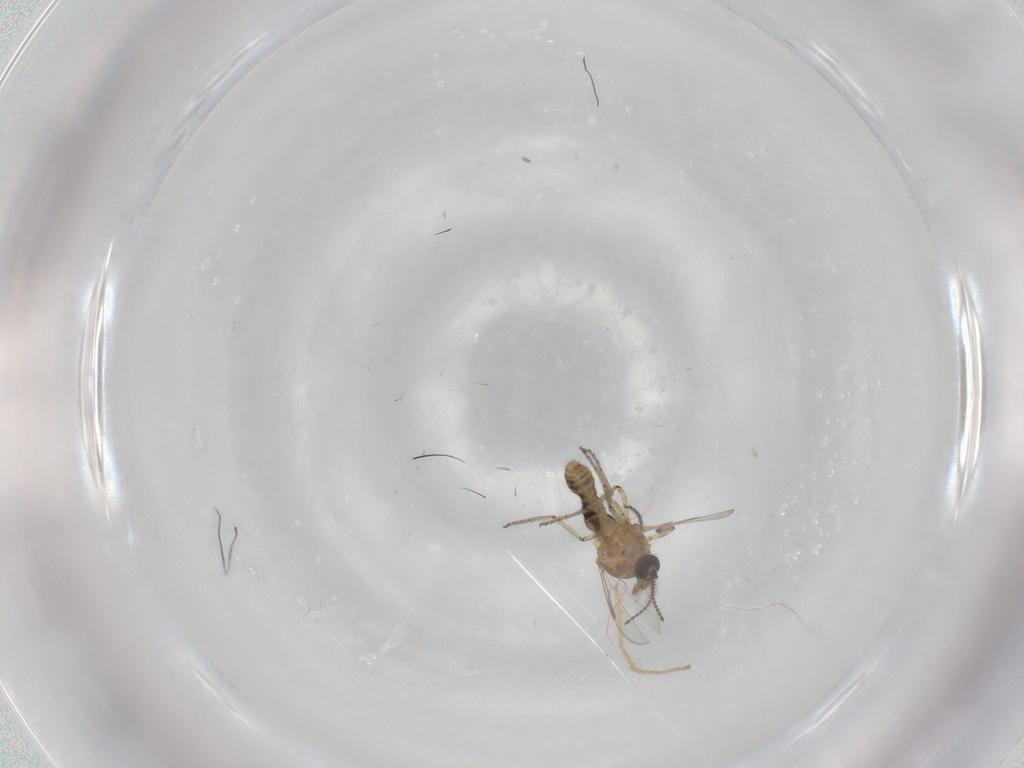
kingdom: Animalia
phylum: Arthropoda
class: Insecta
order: Diptera
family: Ceratopogonidae
